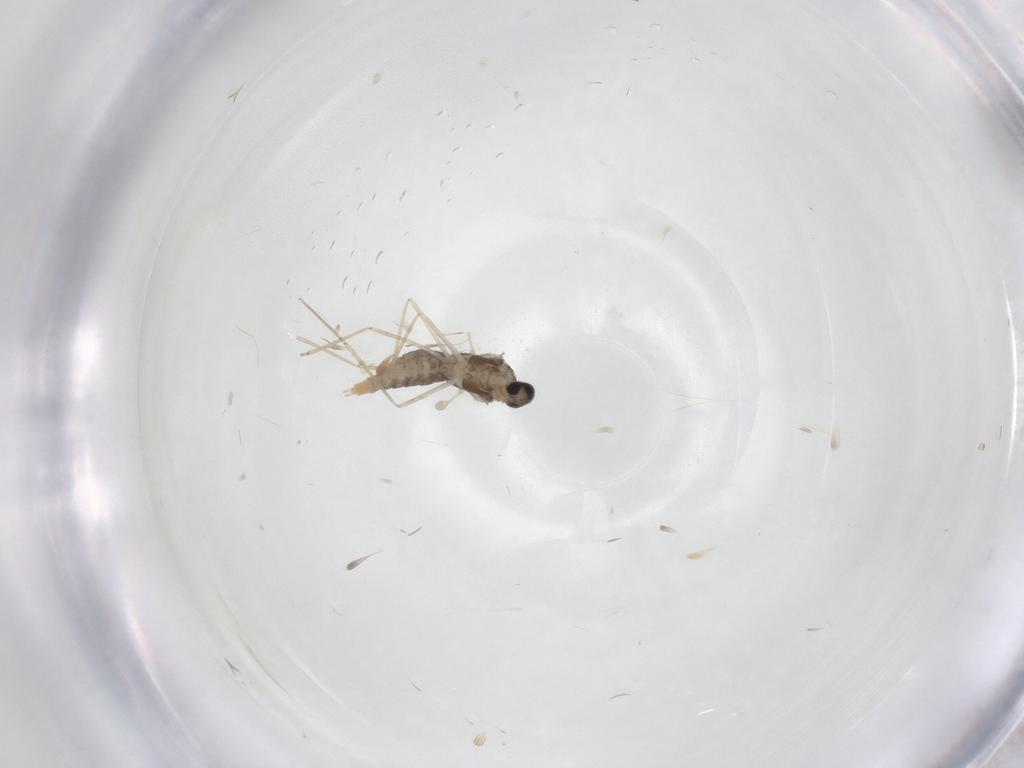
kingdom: Animalia
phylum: Arthropoda
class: Insecta
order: Diptera
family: Cecidomyiidae
